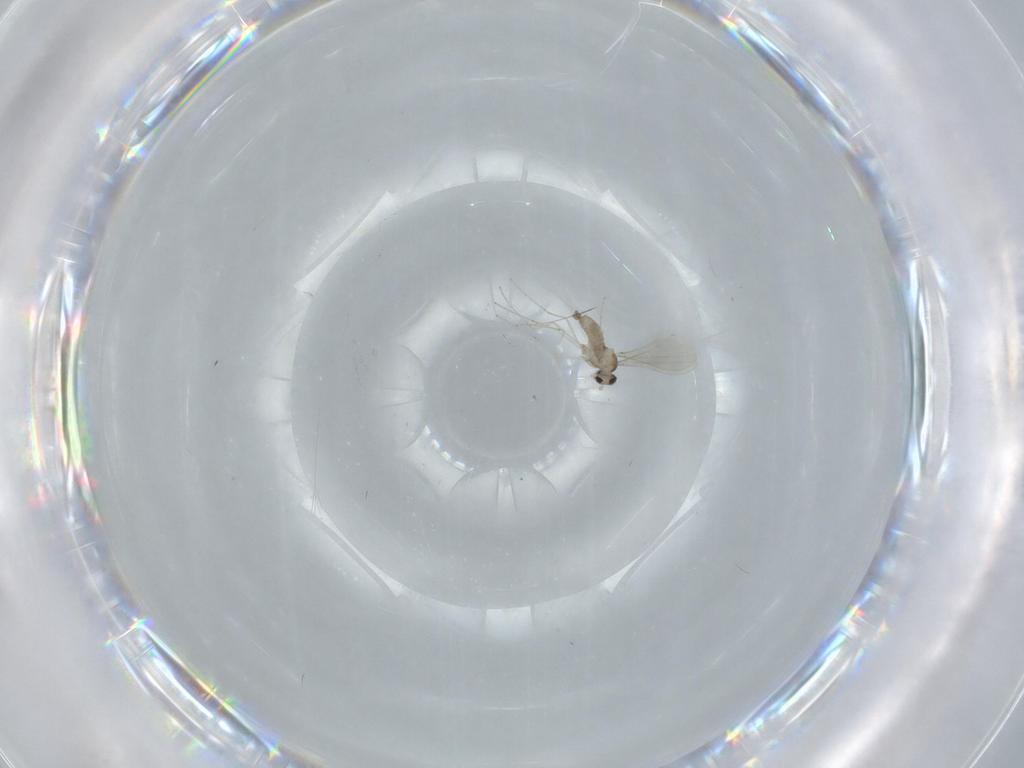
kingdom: Animalia
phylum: Arthropoda
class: Insecta
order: Diptera
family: Cecidomyiidae
